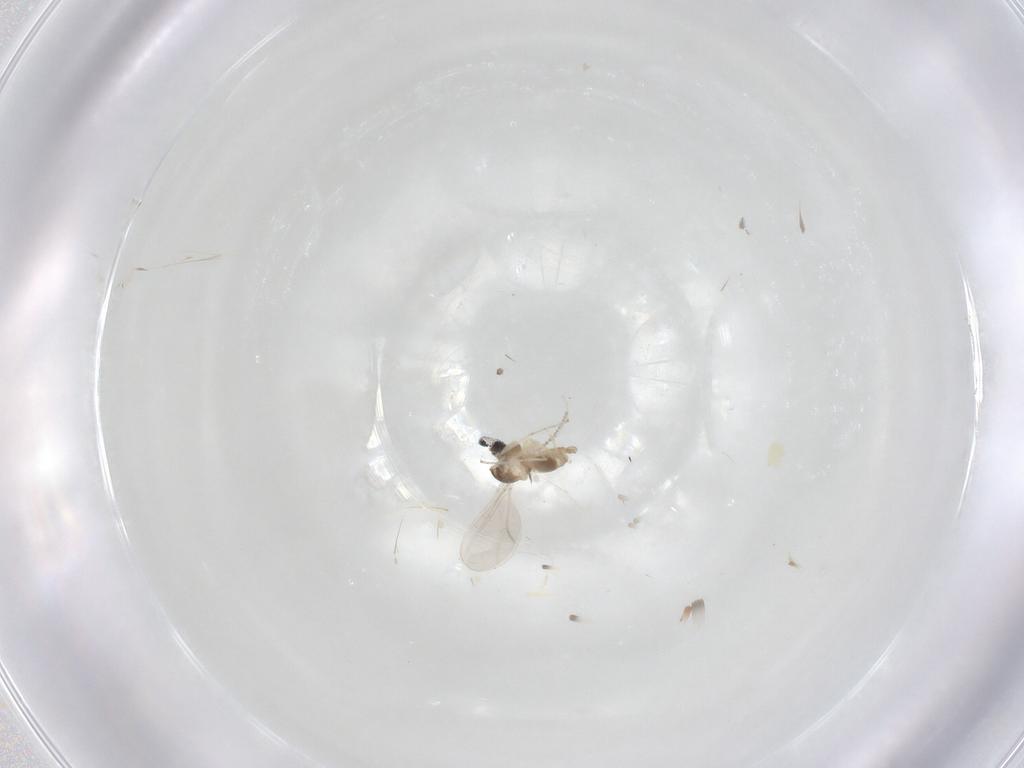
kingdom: Animalia
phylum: Arthropoda
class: Insecta
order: Diptera
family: Cecidomyiidae
